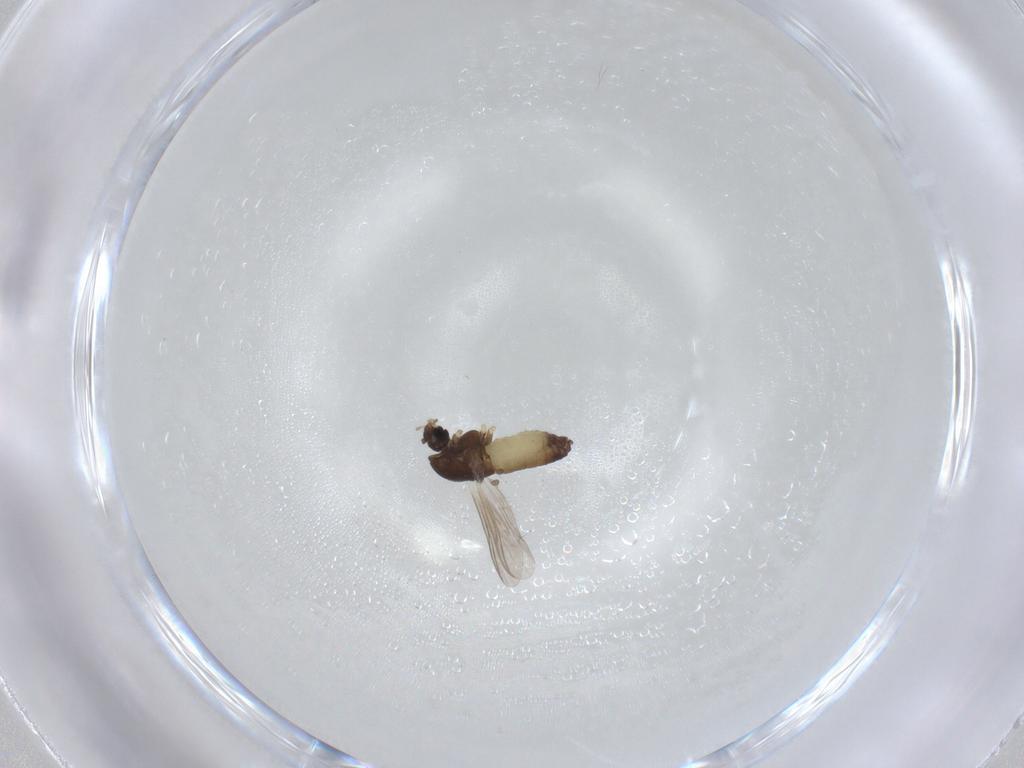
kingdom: Animalia
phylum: Arthropoda
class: Insecta
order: Diptera
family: Chironomidae
